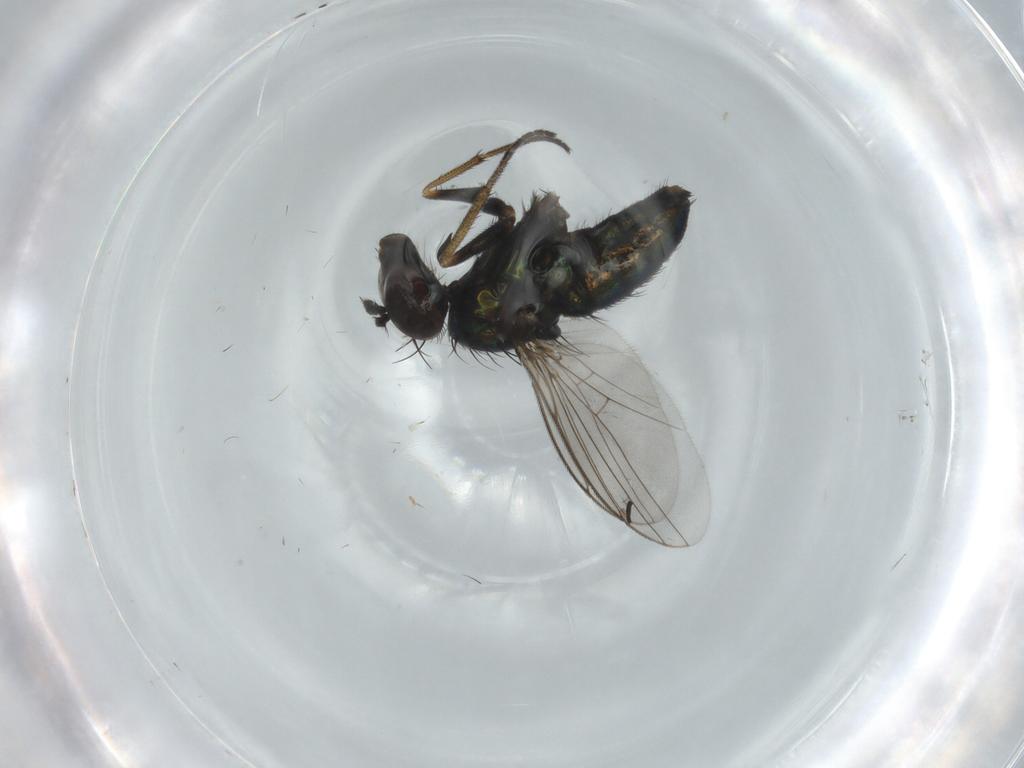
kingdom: Animalia
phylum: Arthropoda
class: Insecta
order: Diptera
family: Dolichopodidae
